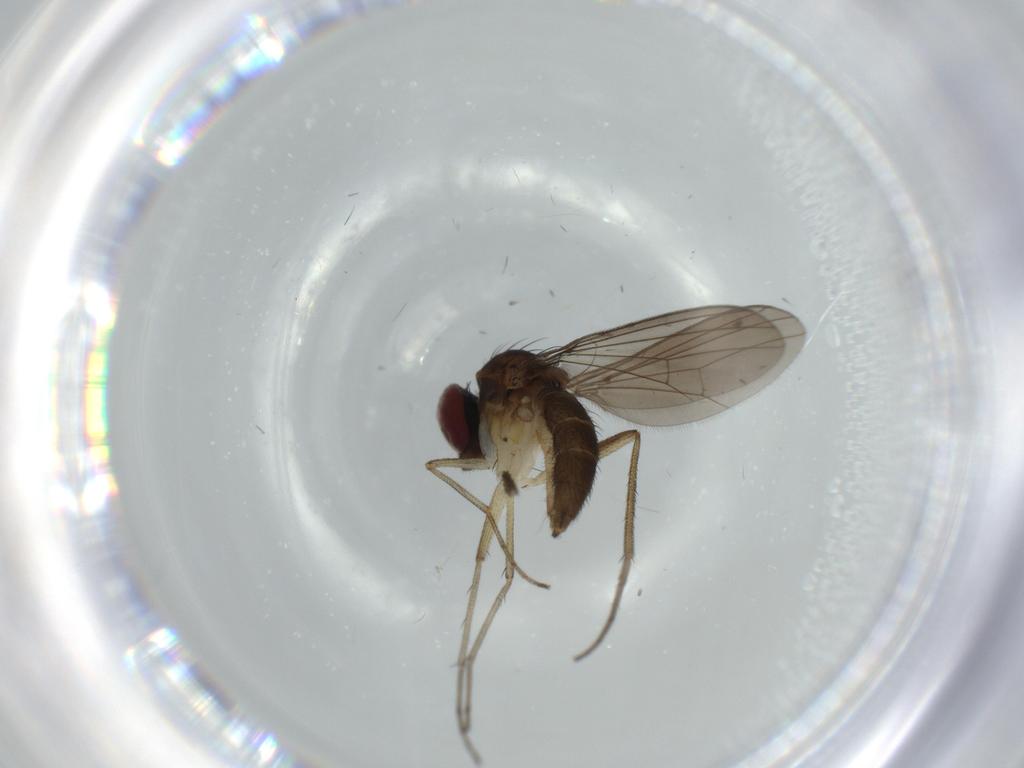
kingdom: Animalia
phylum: Arthropoda
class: Insecta
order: Diptera
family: Dolichopodidae
